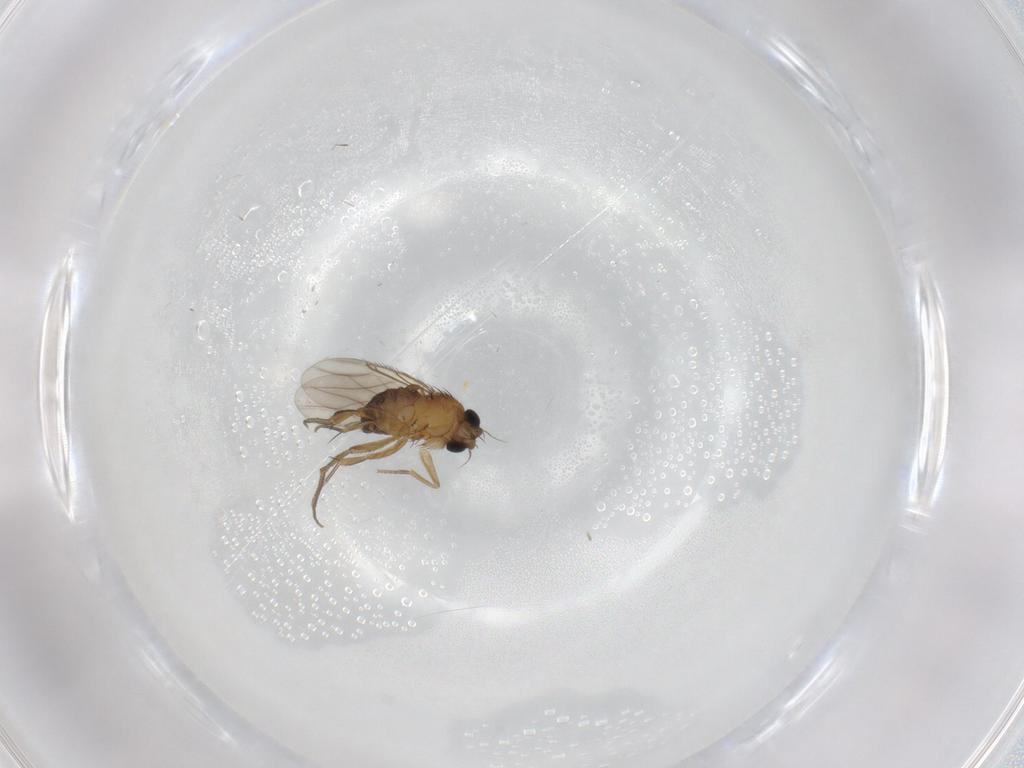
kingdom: Animalia
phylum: Arthropoda
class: Insecta
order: Diptera
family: Phoridae
